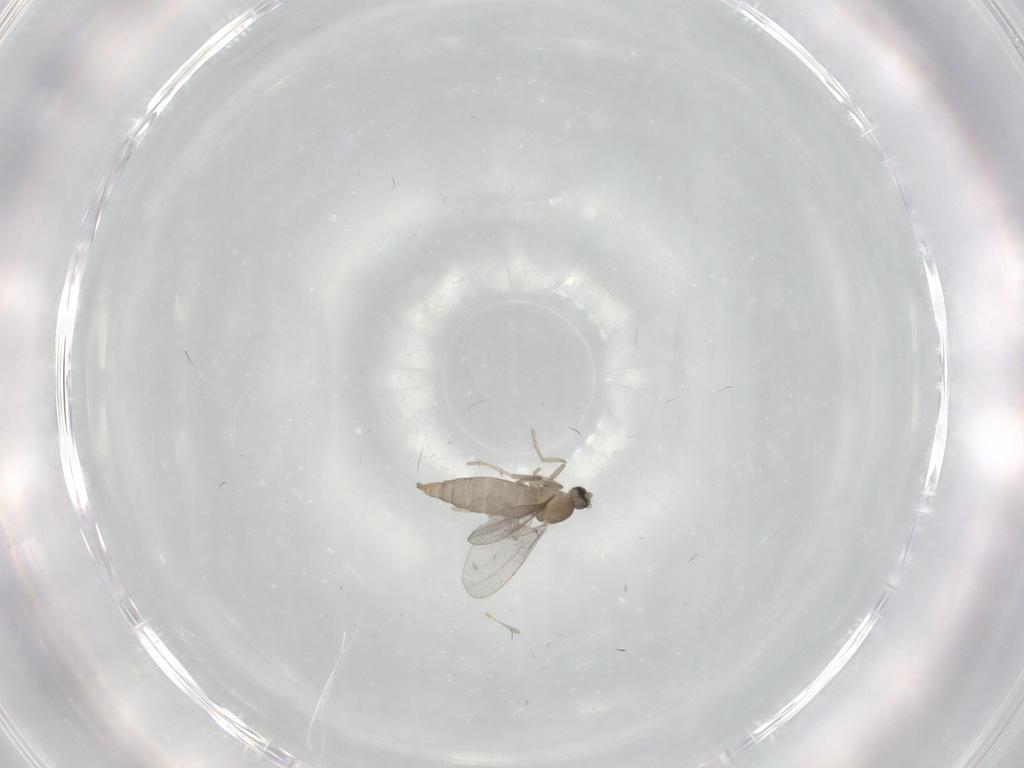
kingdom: Animalia
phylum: Arthropoda
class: Insecta
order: Diptera
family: Cecidomyiidae
